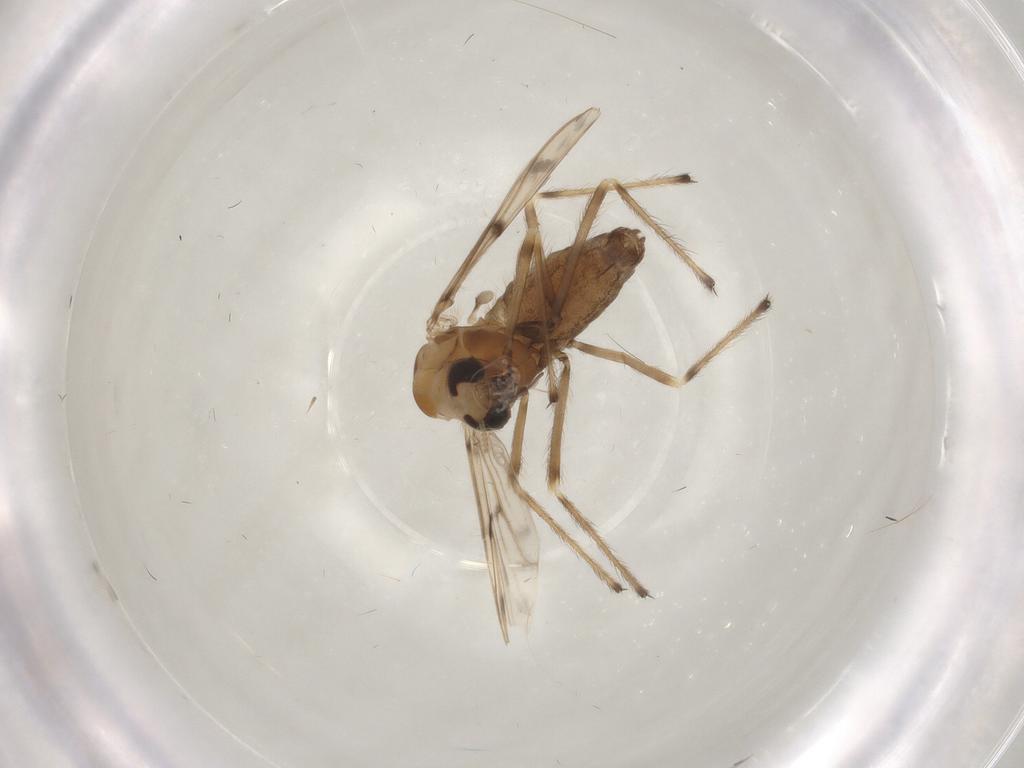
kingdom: Animalia
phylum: Arthropoda
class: Insecta
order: Diptera
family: Chironomidae
